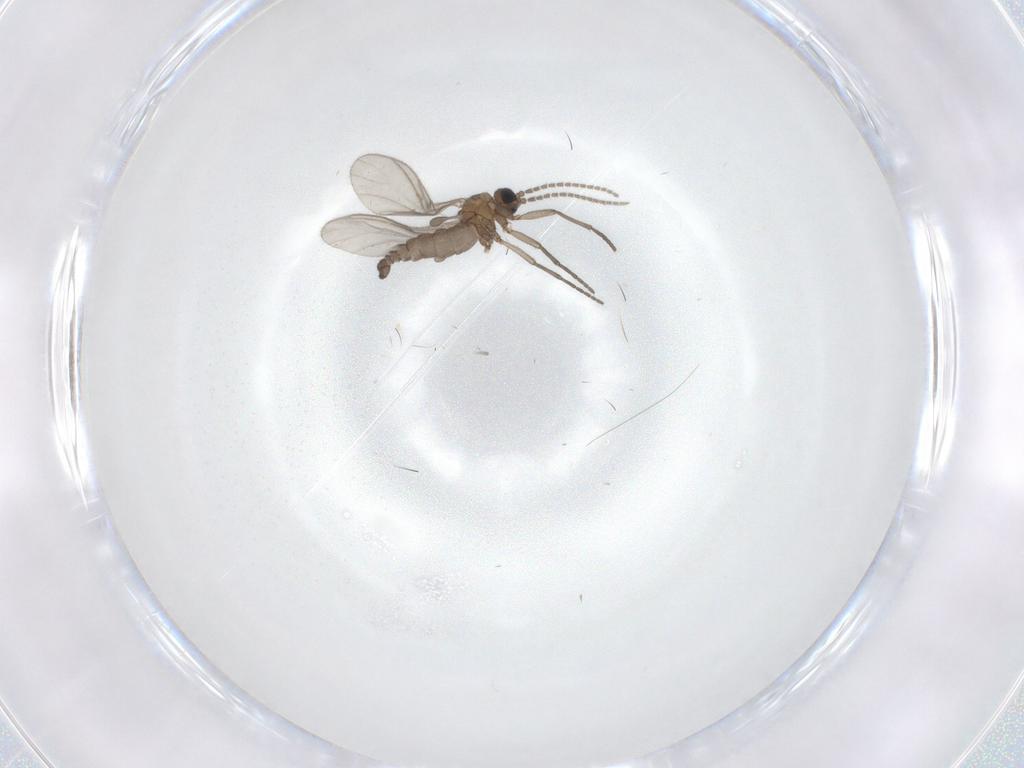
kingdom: Animalia
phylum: Arthropoda
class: Insecta
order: Diptera
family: Sciaridae
